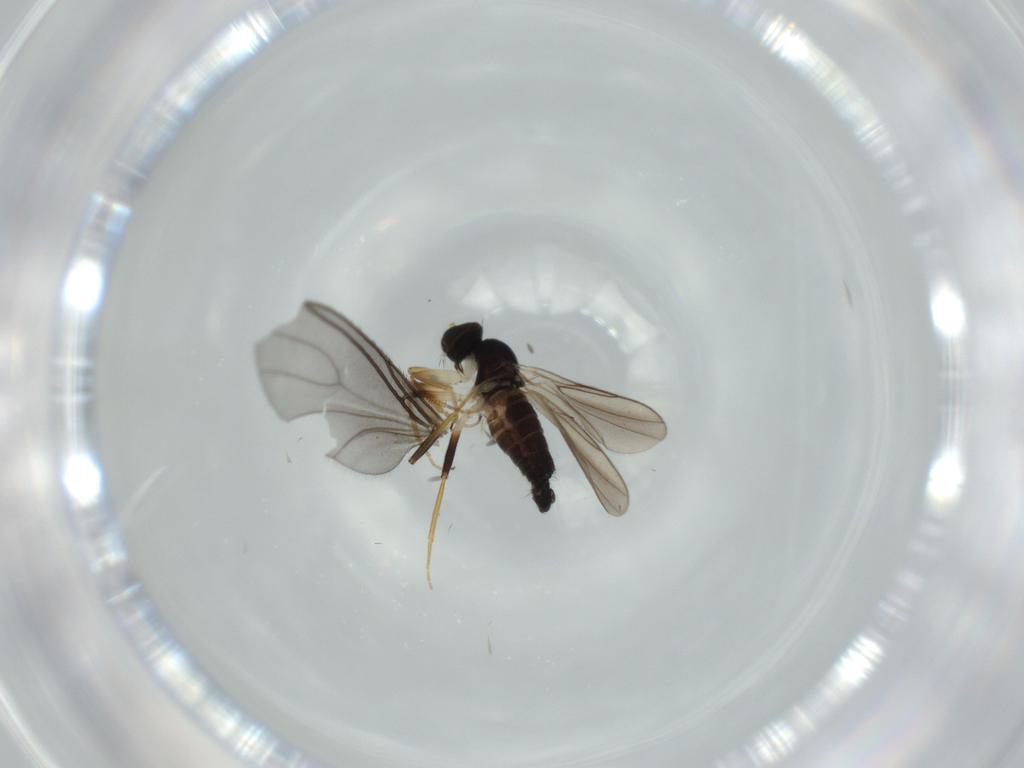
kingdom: Animalia
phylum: Arthropoda
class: Insecta
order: Diptera
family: Hybotidae
